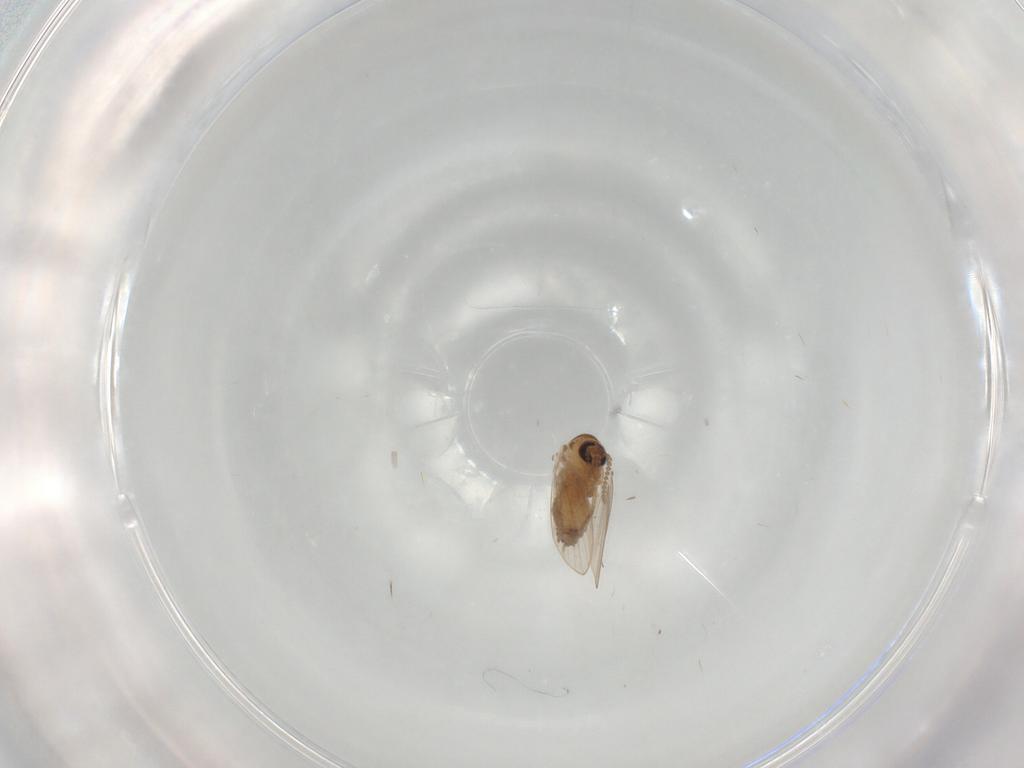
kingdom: Animalia
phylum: Arthropoda
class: Insecta
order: Diptera
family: Psychodidae
